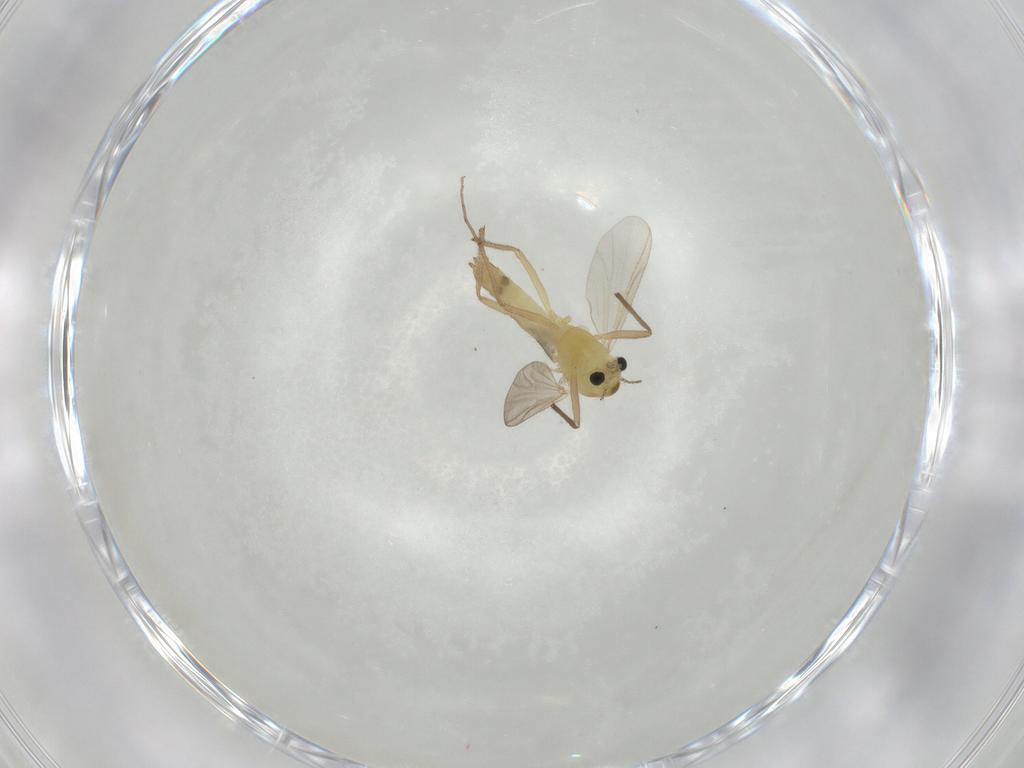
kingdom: Animalia
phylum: Arthropoda
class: Insecta
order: Diptera
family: Chironomidae
